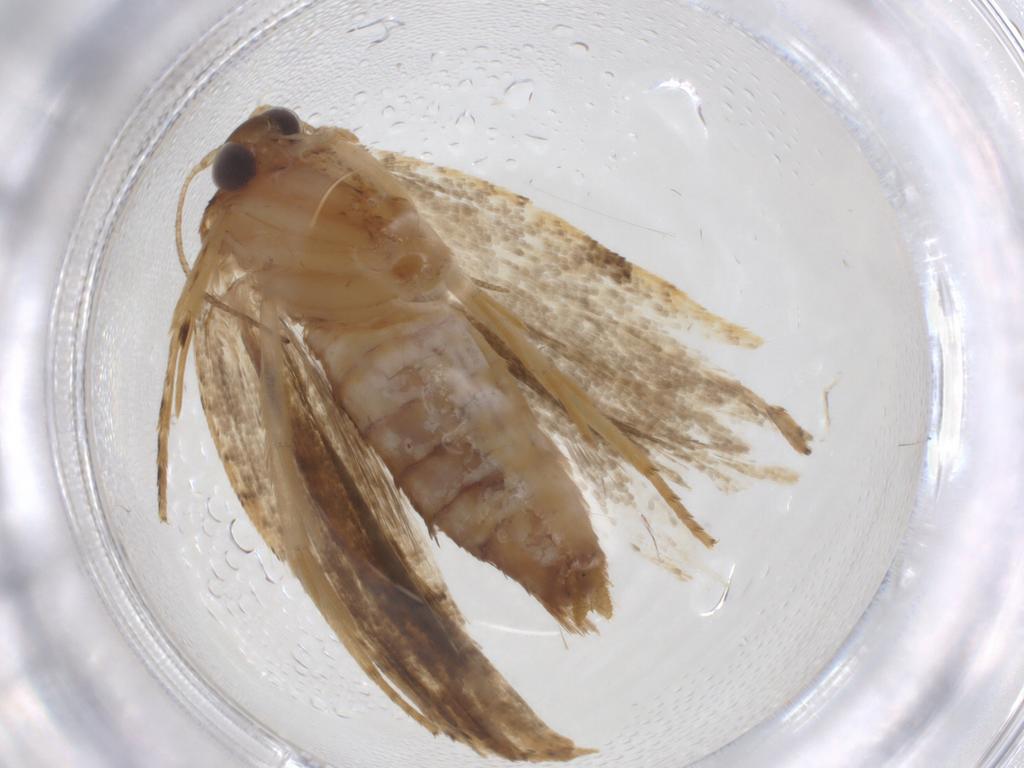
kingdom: Animalia
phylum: Arthropoda
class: Insecta
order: Lepidoptera
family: Tortricidae
